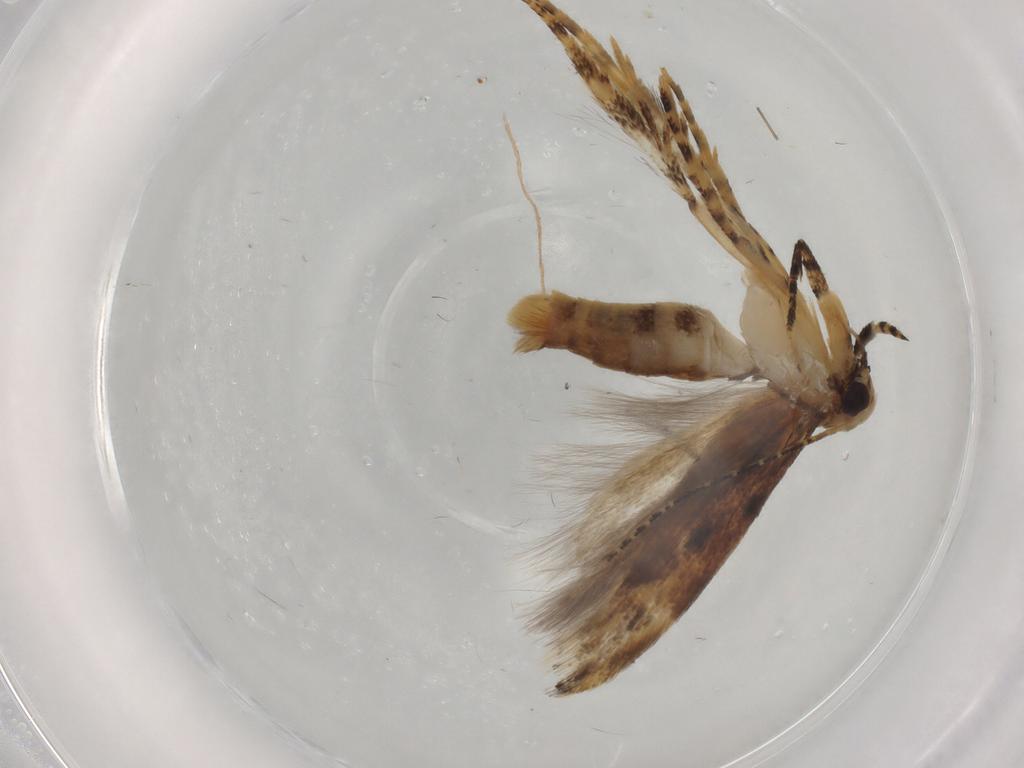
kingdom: Animalia
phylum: Arthropoda
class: Insecta
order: Lepidoptera
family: Gelechiidae
